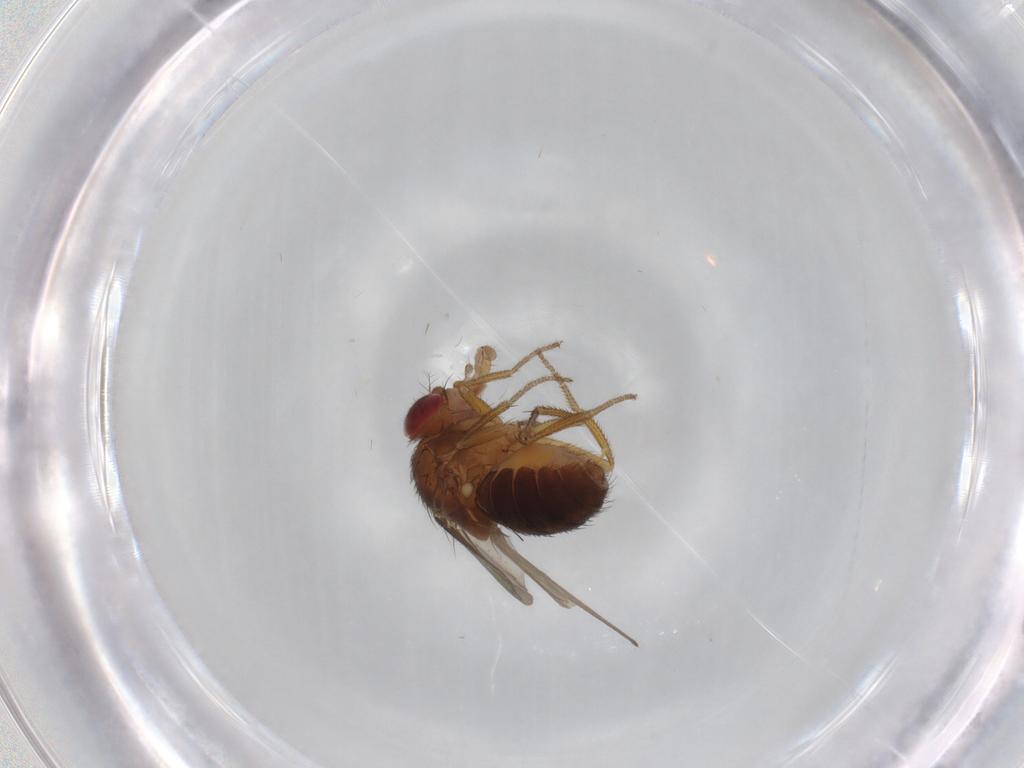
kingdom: Animalia
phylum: Arthropoda
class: Insecta
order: Diptera
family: Drosophilidae
